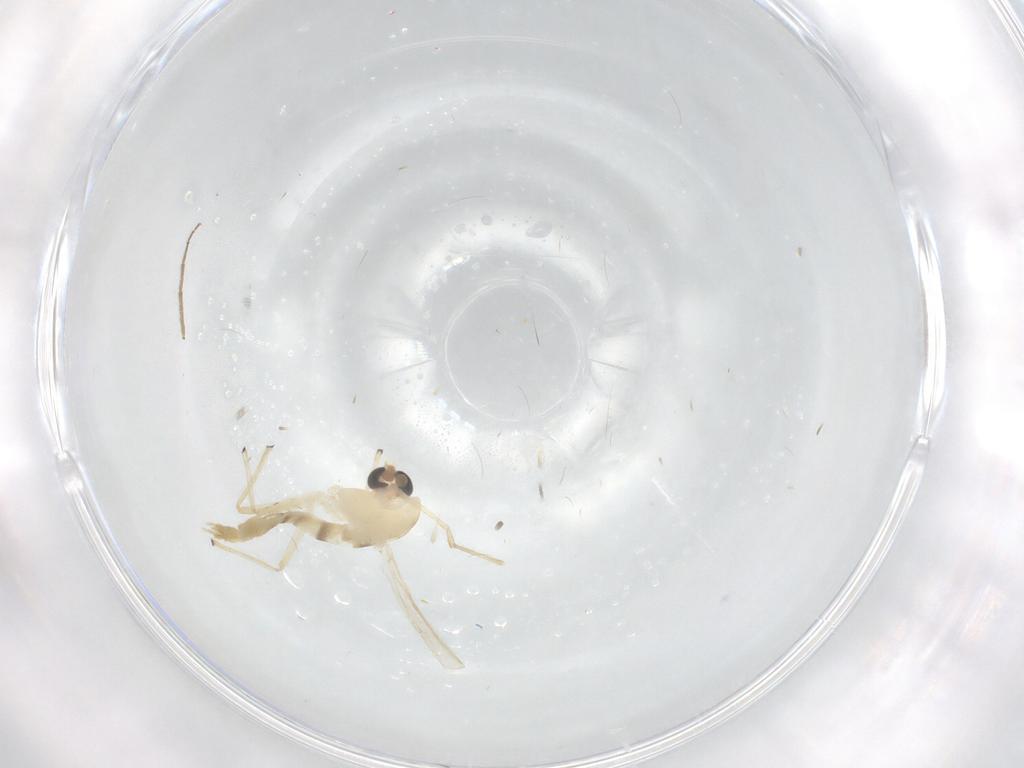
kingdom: Animalia
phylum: Arthropoda
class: Insecta
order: Diptera
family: Chironomidae
